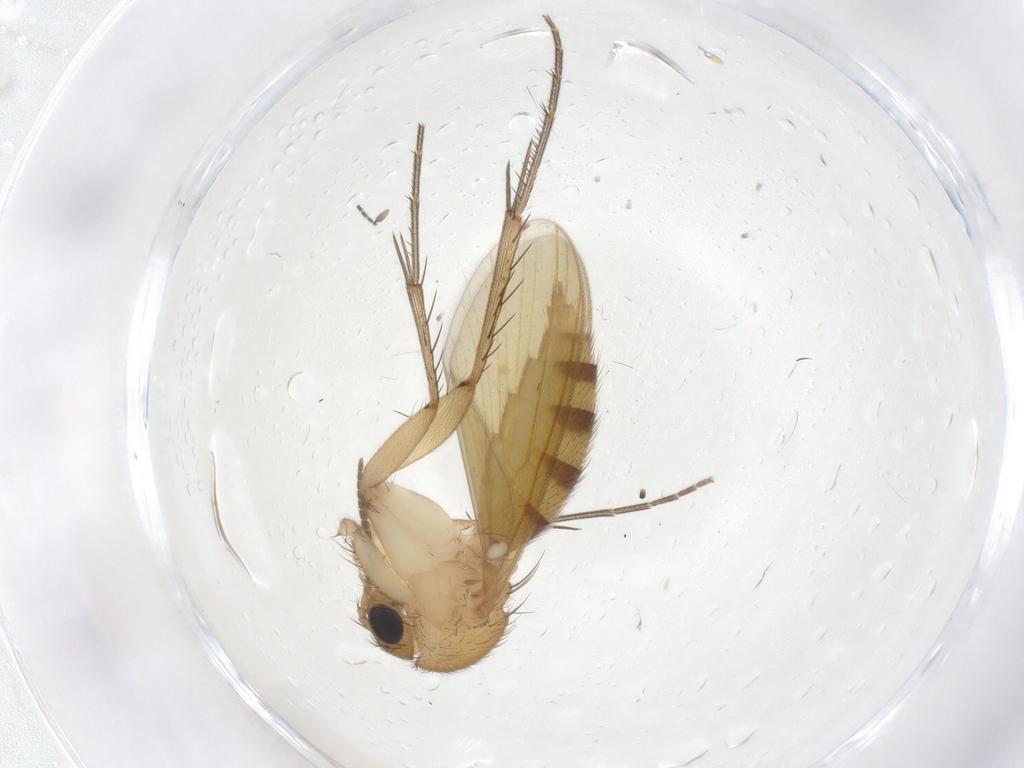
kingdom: Animalia
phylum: Arthropoda
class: Insecta
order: Diptera
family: Mycetophilidae
